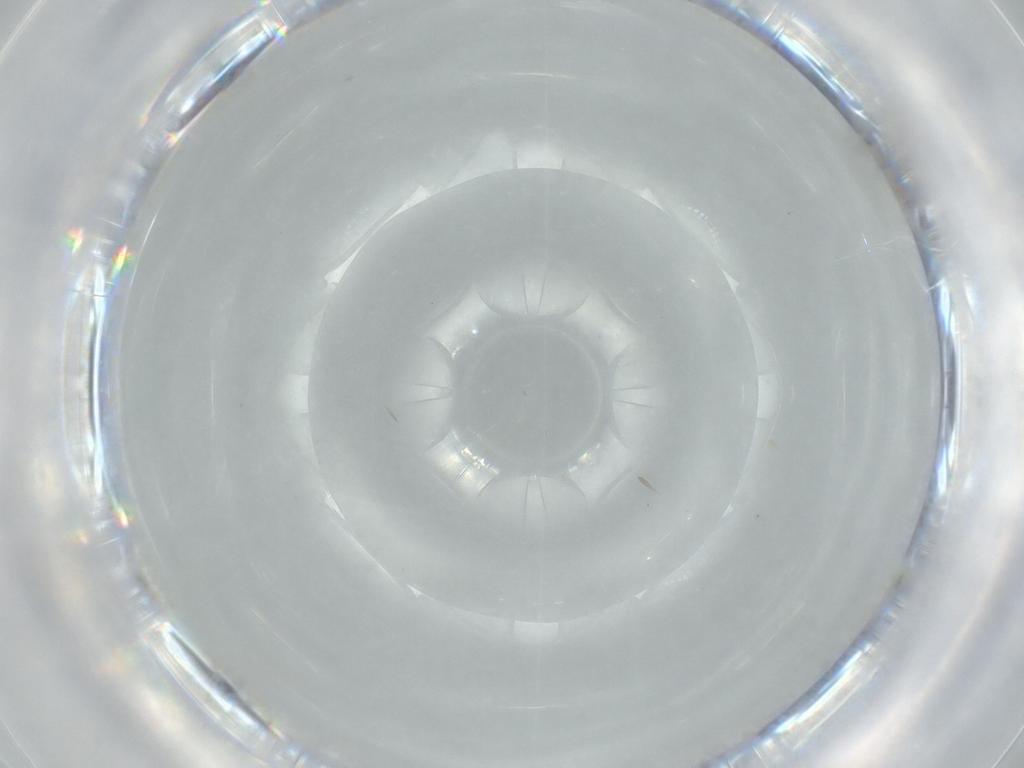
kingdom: Animalia
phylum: Arthropoda
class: Insecta
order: Hymenoptera
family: Scelionidae
